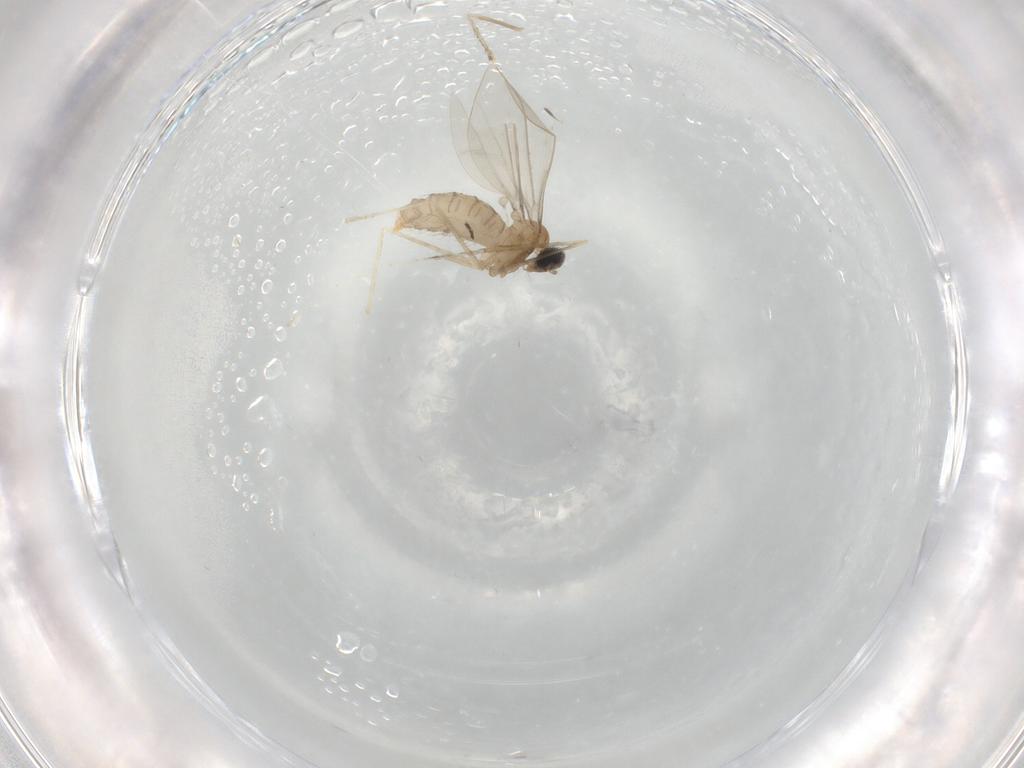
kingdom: Animalia
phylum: Arthropoda
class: Insecta
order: Diptera
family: Cecidomyiidae
